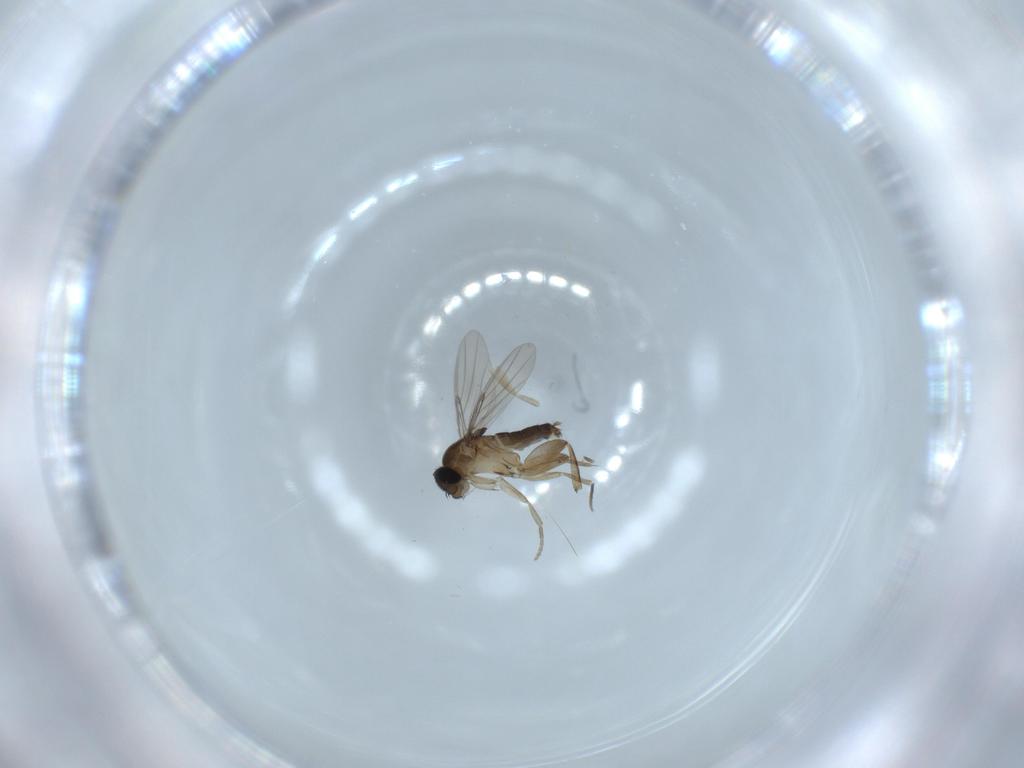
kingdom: Animalia
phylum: Arthropoda
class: Insecta
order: Diptera
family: Phoridae
